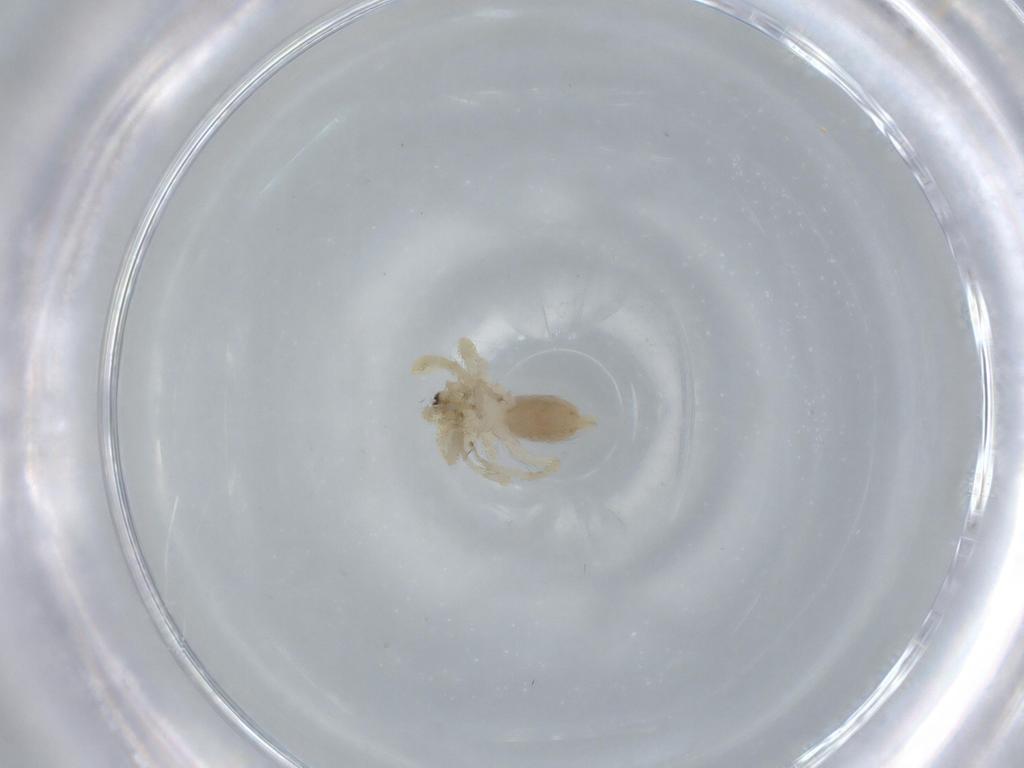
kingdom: Animalia
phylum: Arthropoda
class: Arachnida
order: Araneae
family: Oonopidae
